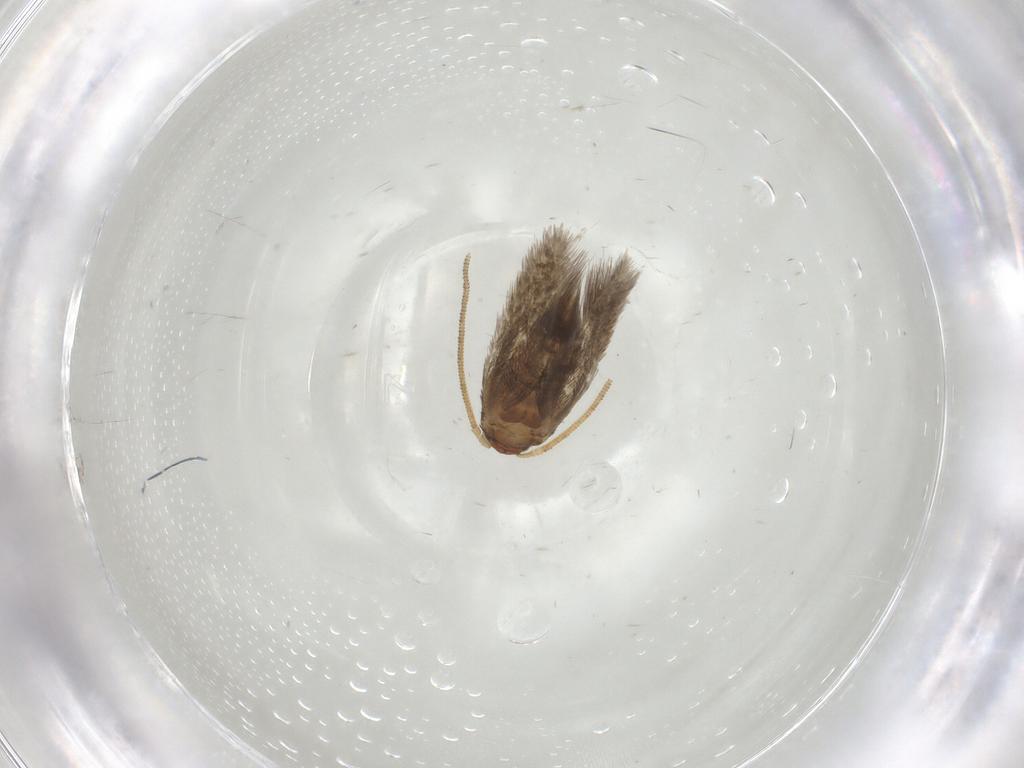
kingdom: Animalia
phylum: Arthropoda
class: Insecta
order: Lepidoptera
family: Nepticulidae
